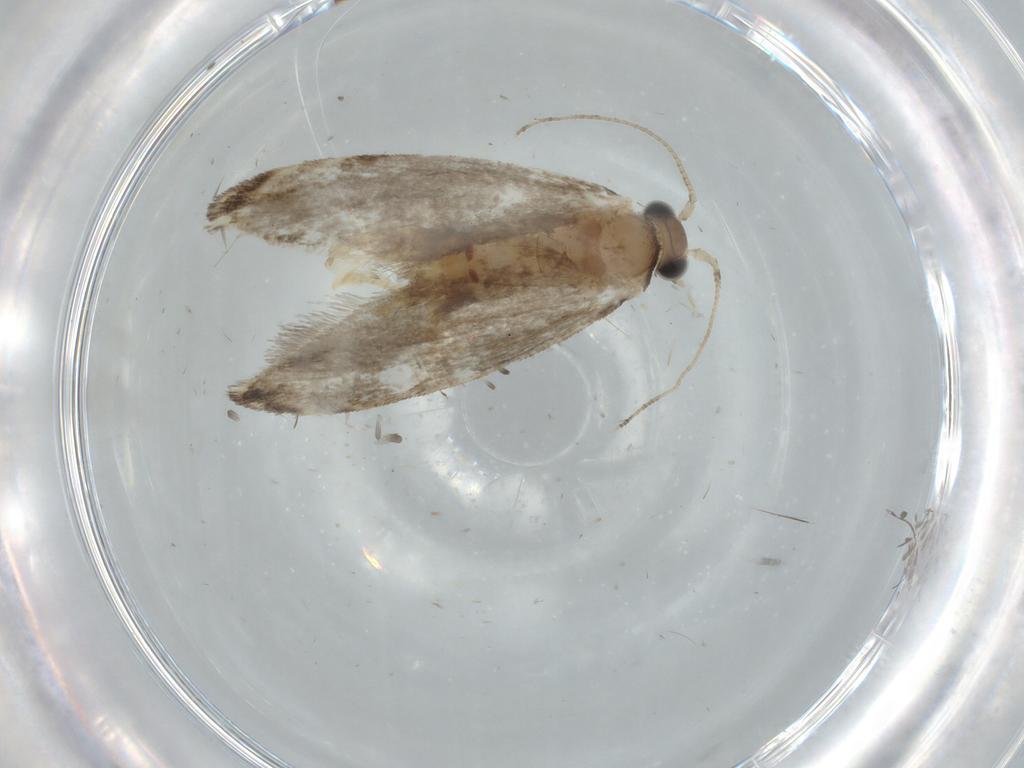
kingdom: Animalia
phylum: Arthropoda
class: Insecta
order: Lepidoptera
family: Tineidae
